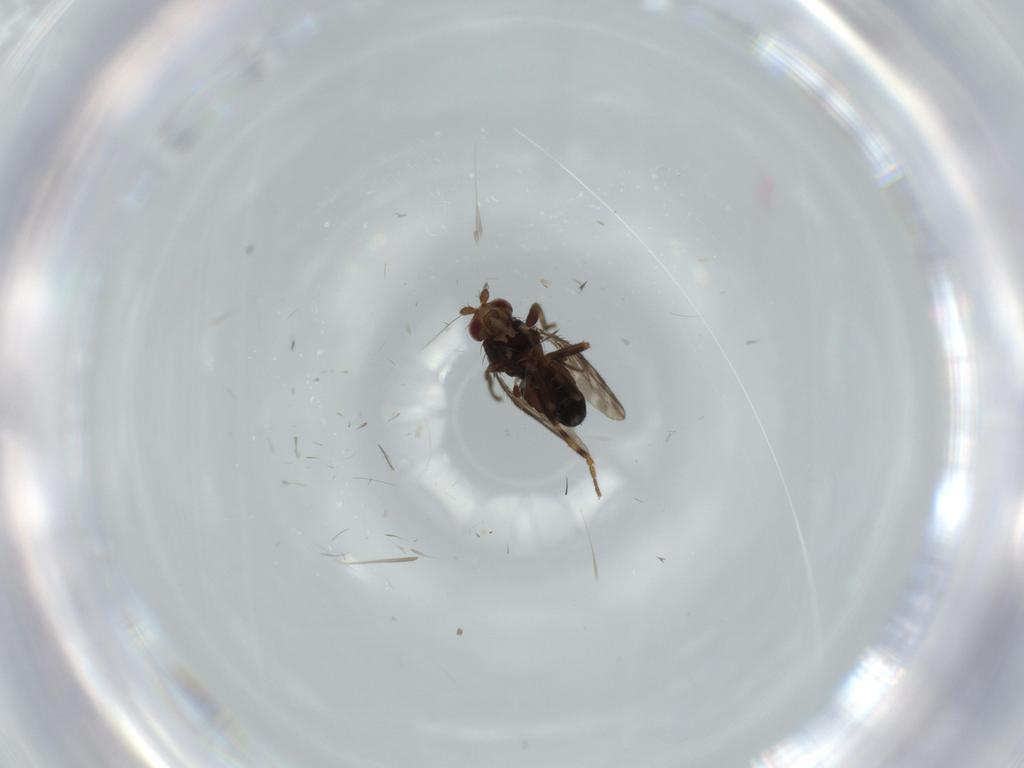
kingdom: Animalia
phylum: Arthropoda
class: Insecta
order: Diptera
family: Sphaeroceridae
